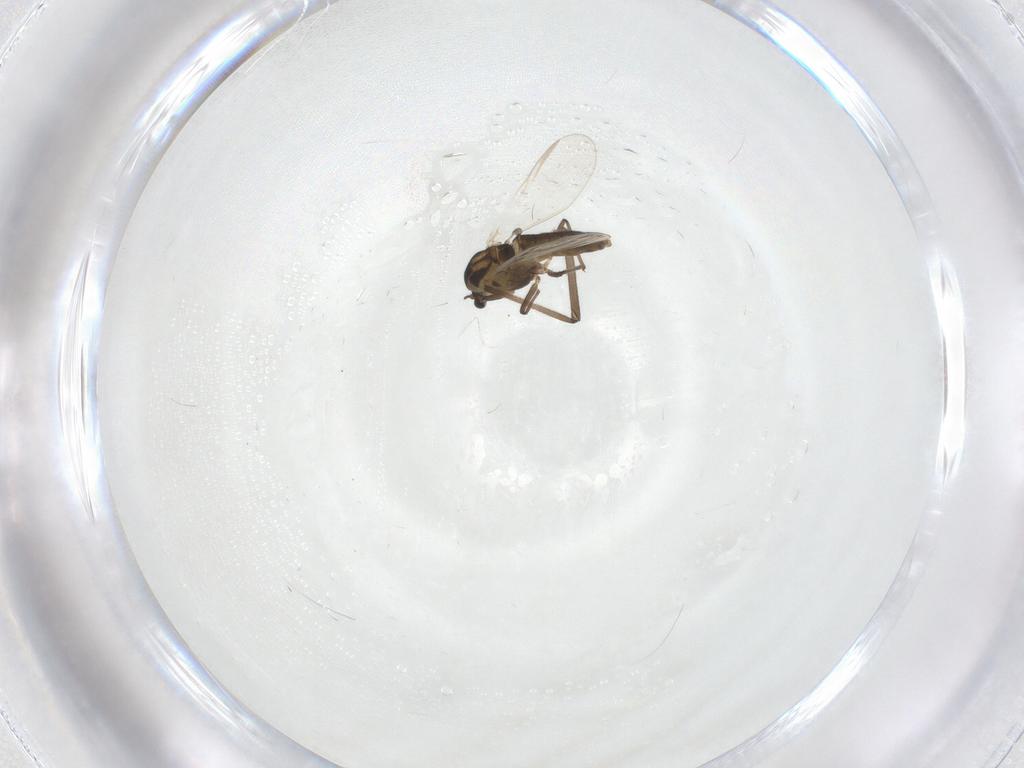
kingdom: Animalia
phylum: Arthropoda
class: Insecta
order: Diptera
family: Chironomidae
